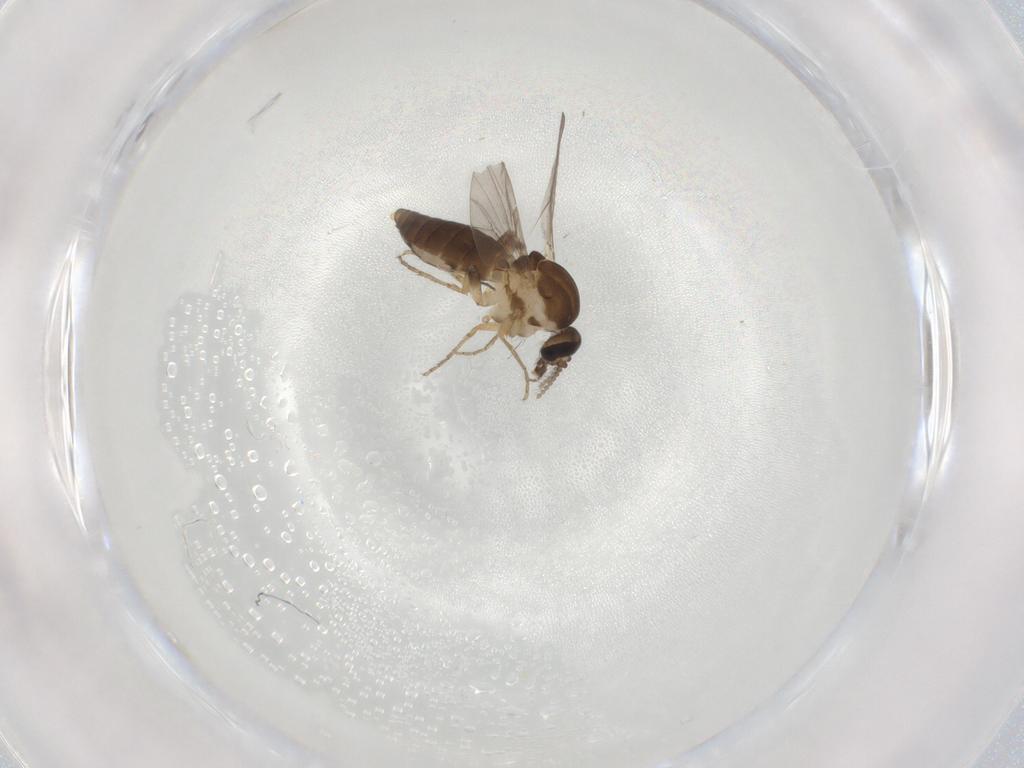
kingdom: Animalia
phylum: Arthropoda
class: Insecta
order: Diptera
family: Ceratopogonidae
